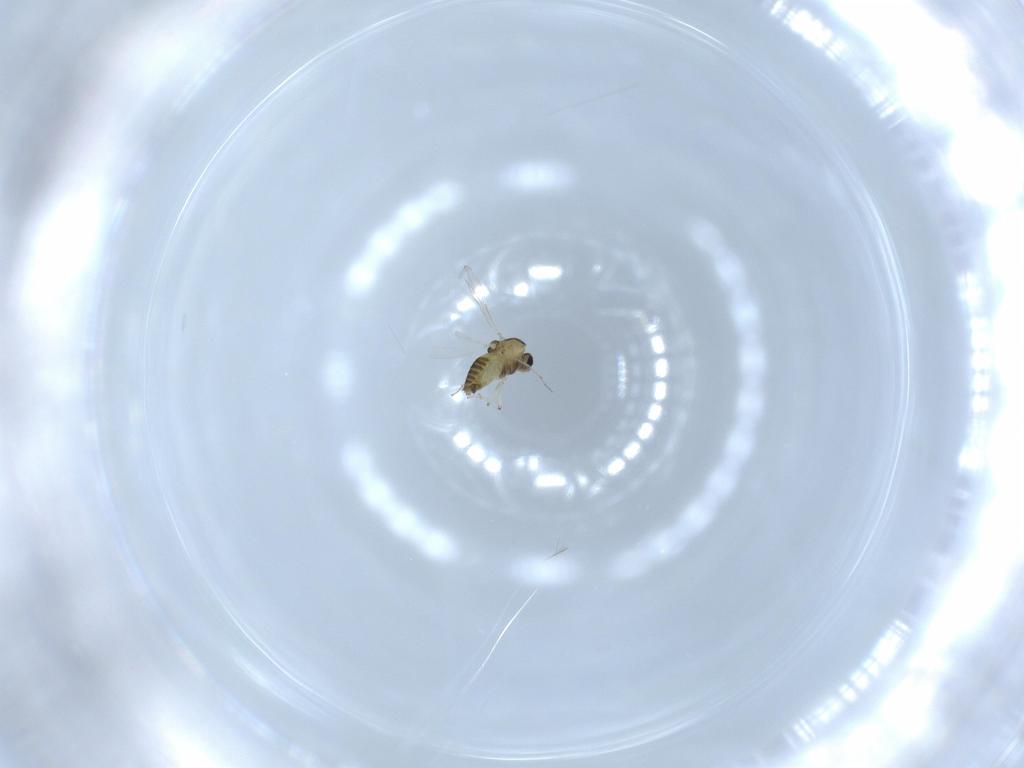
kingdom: Animalia
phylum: Arthropoda
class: Insecta
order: Diptera
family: Chironomidae
